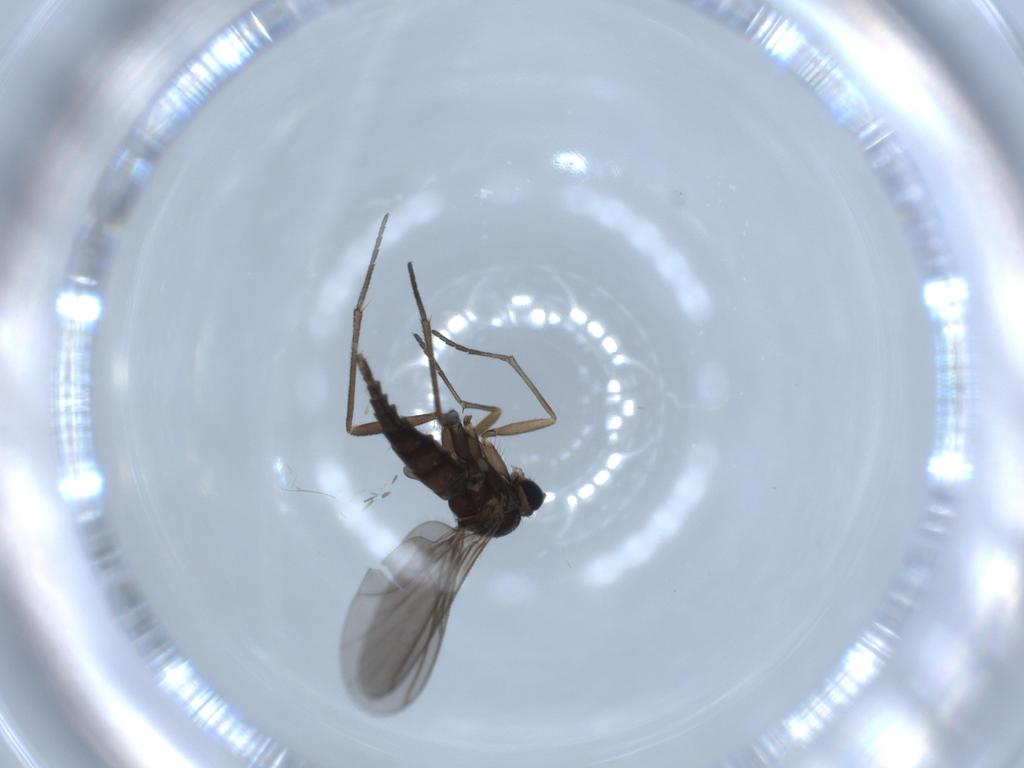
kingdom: Animalia
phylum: Arthropoda
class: Insecta
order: Diptera
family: Sciaridae
